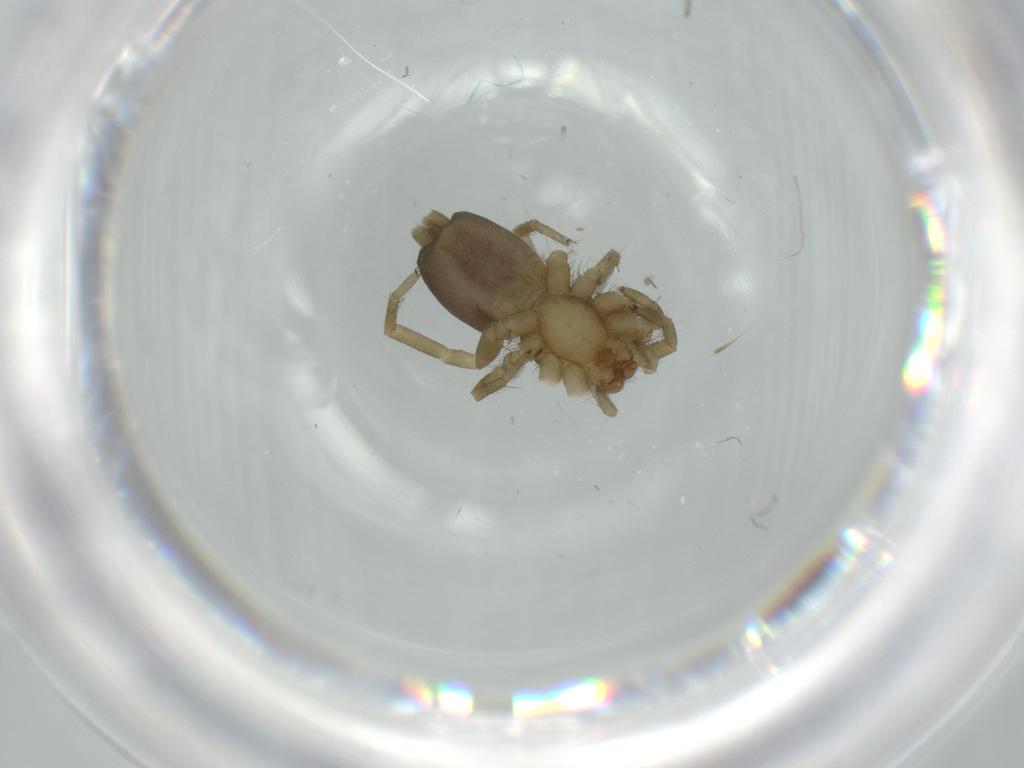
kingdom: Animalia
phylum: Arthropoda
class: Arachnida
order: Araneae
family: Gnaphosidae
